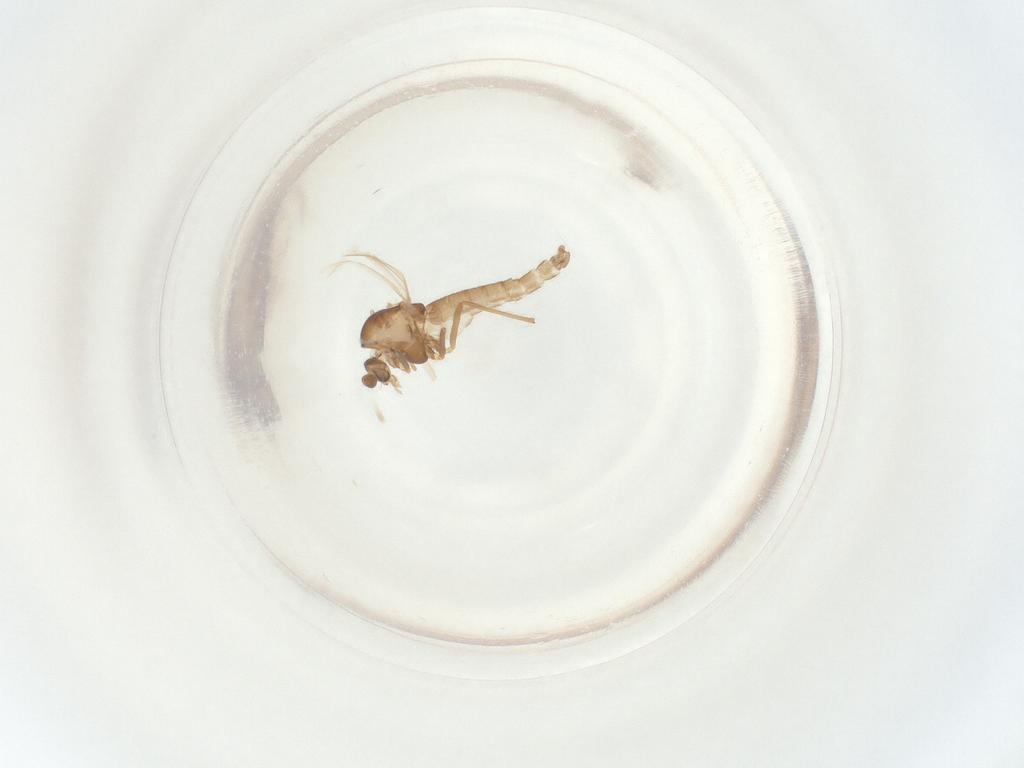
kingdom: Animalia
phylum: Arthropoda
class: Insecta
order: Diptera
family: Chironomidae
